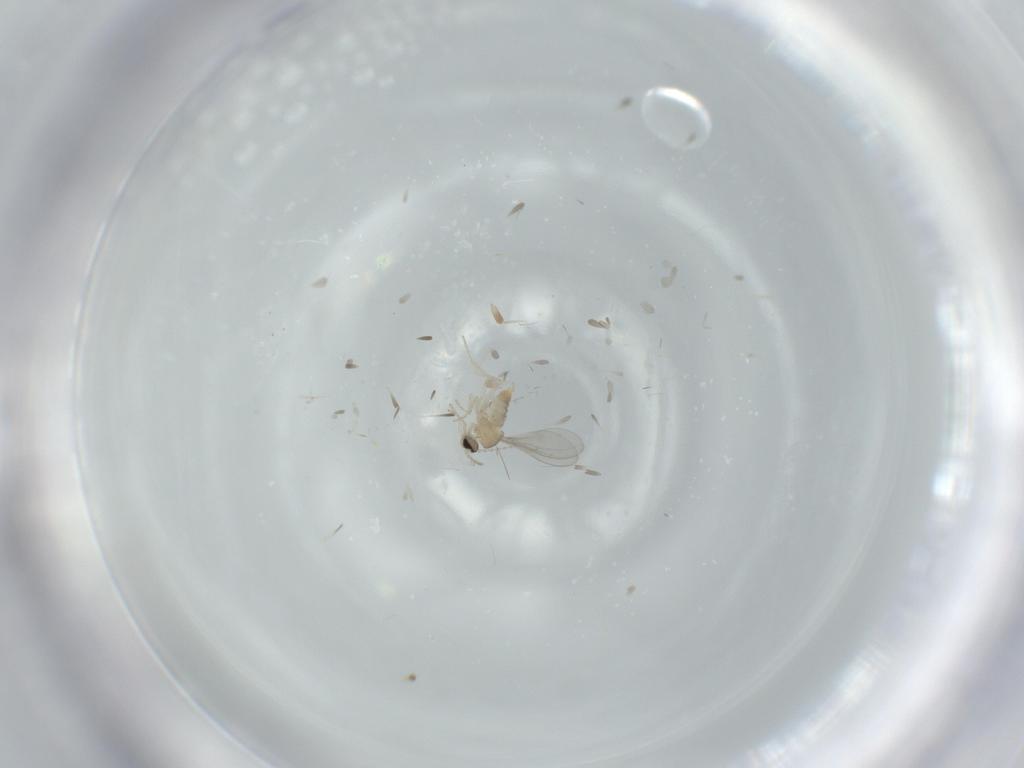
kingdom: Animalia
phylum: Arthropoda
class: Insecta
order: Diptera
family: Cecidomyiidae
